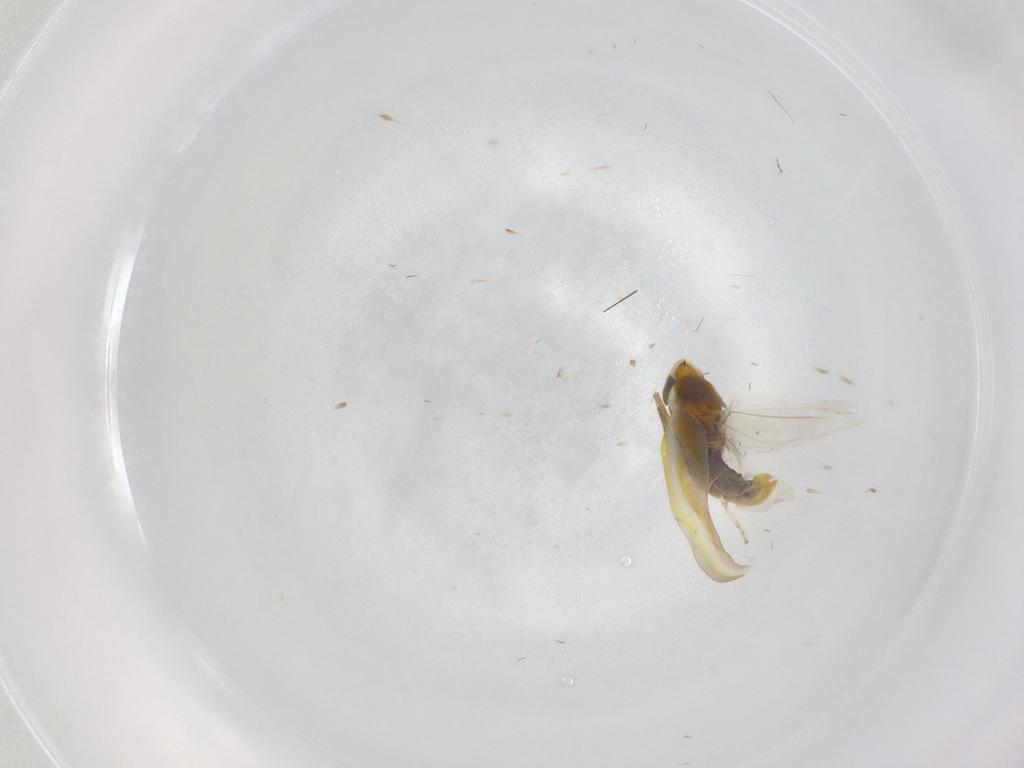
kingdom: Animalia
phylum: Arthropoda
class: Insecta
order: Hemiptera
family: Cicadellidae
